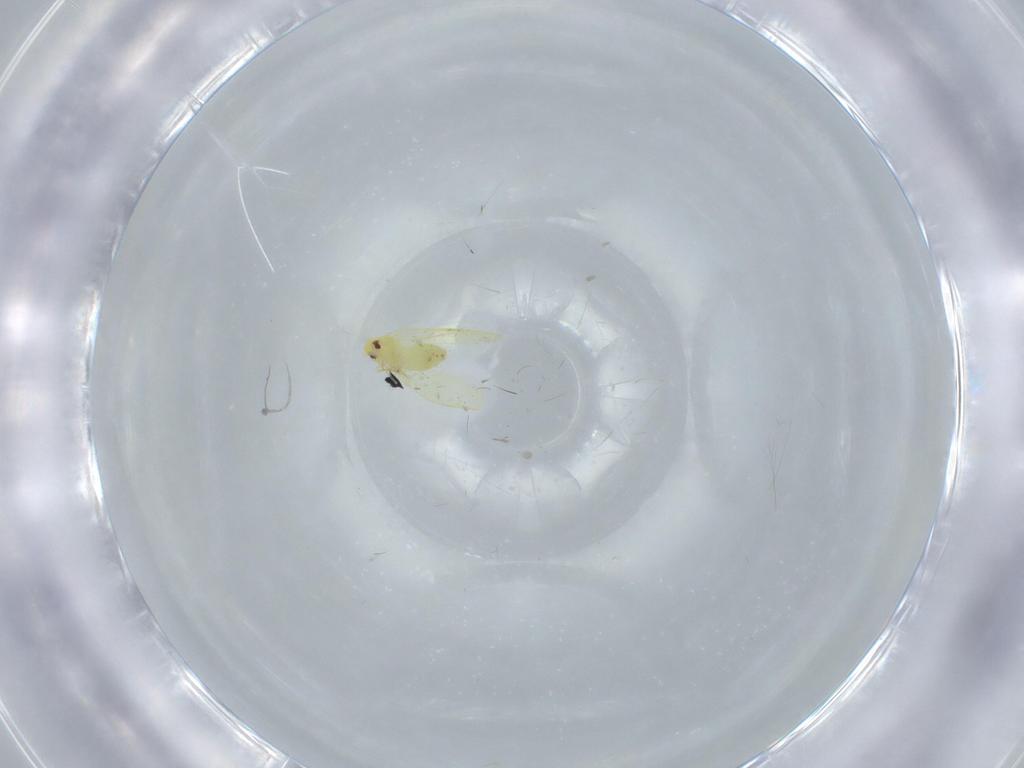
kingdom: Animalia
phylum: Arthropoda
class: Insecta
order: Hemiptera
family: Aleyrodidae
